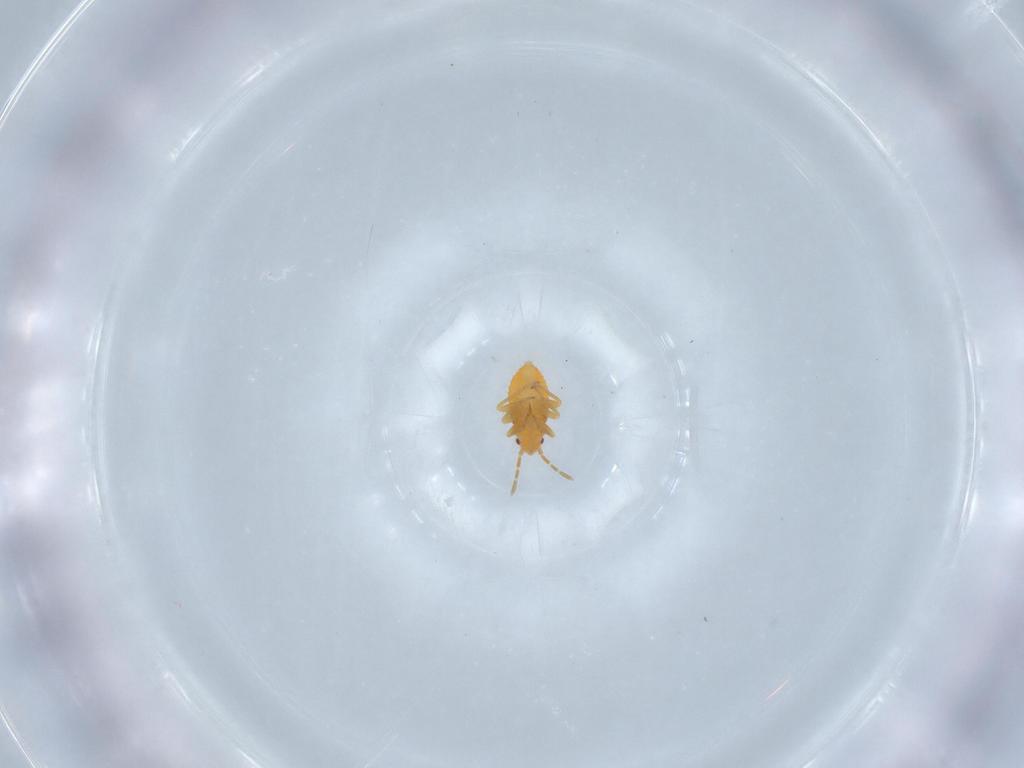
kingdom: Animalia
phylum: Arthropoda
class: Insecta
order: Hemiptera
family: Miridae
